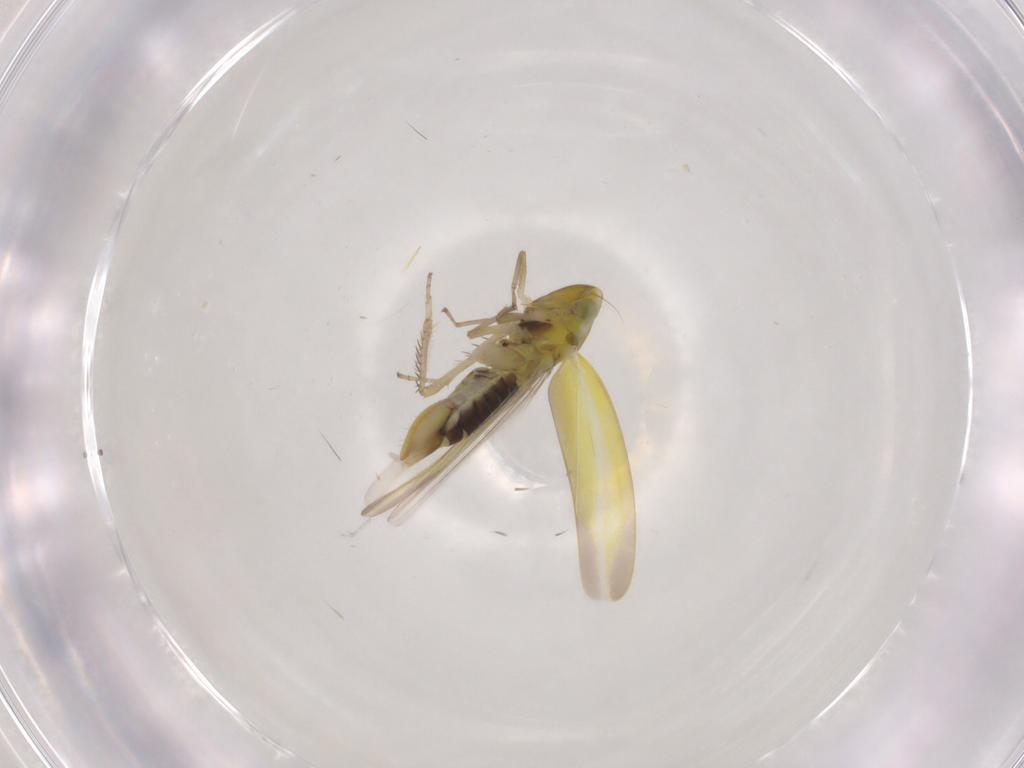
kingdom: Animalia
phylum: Arthropoda
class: Insecta
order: Hemiptera
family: Cicadellidae
